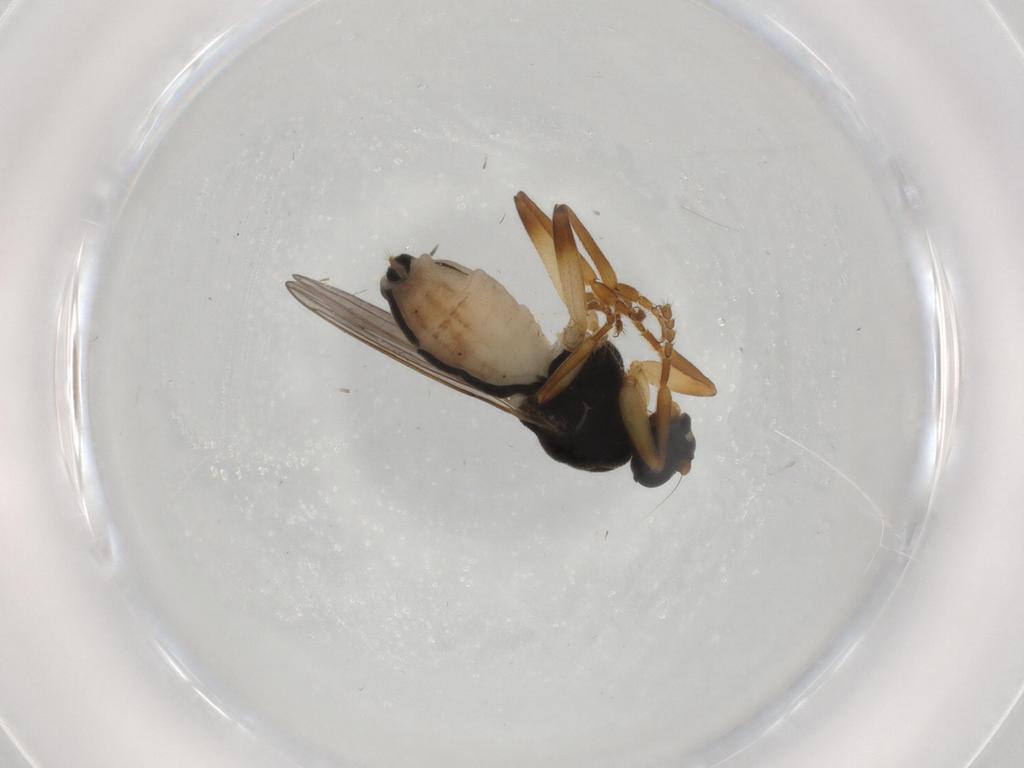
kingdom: Animalia
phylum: Arthropoda
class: Insecta
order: Diptera
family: Sphaeroceridae
